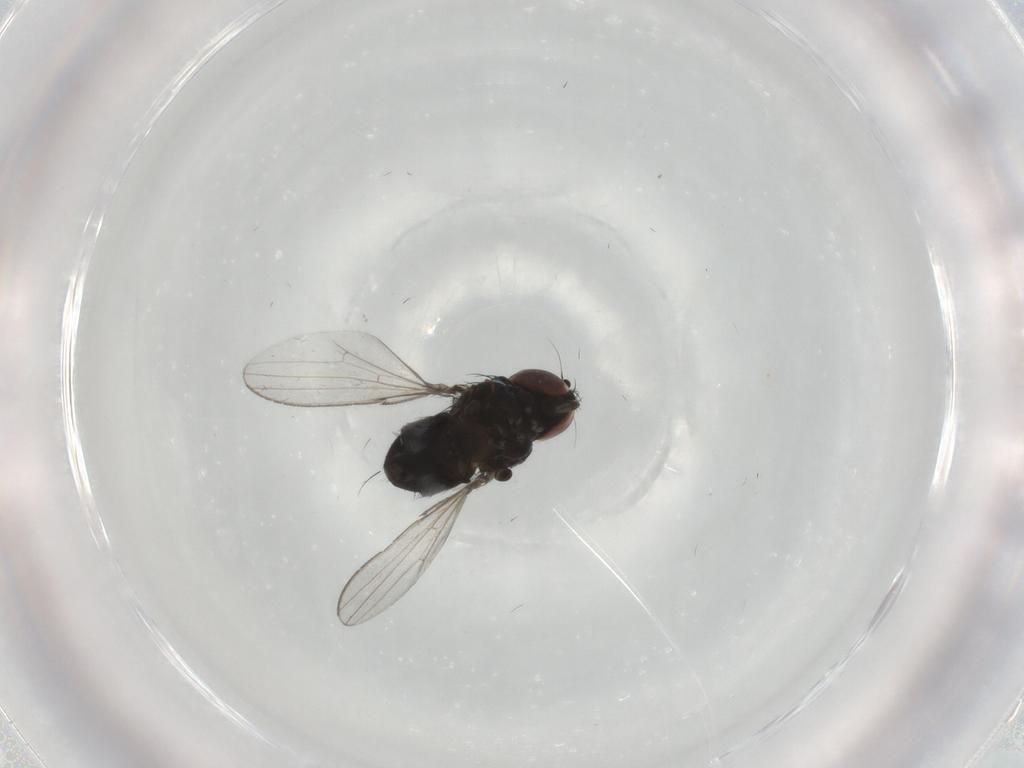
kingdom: Animalia
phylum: Arthropoda
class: Insecta
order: Diptera
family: Milichiidae
